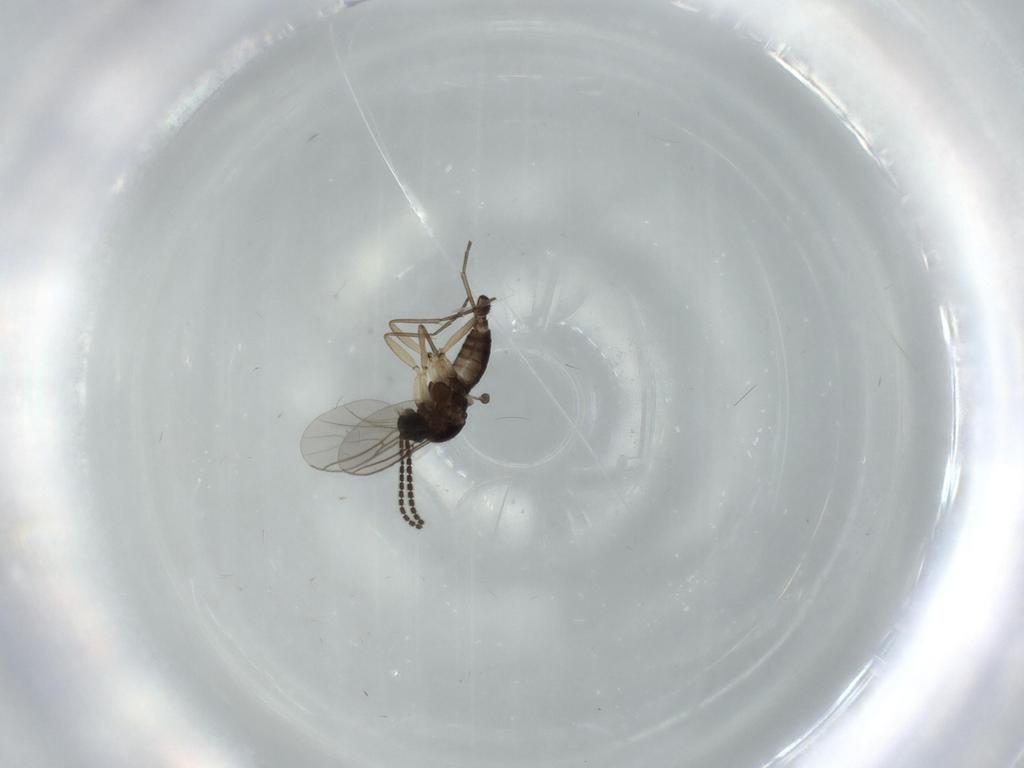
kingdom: Animalia
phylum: Arthropoda
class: Insecta
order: Diptera
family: Sciaridae
